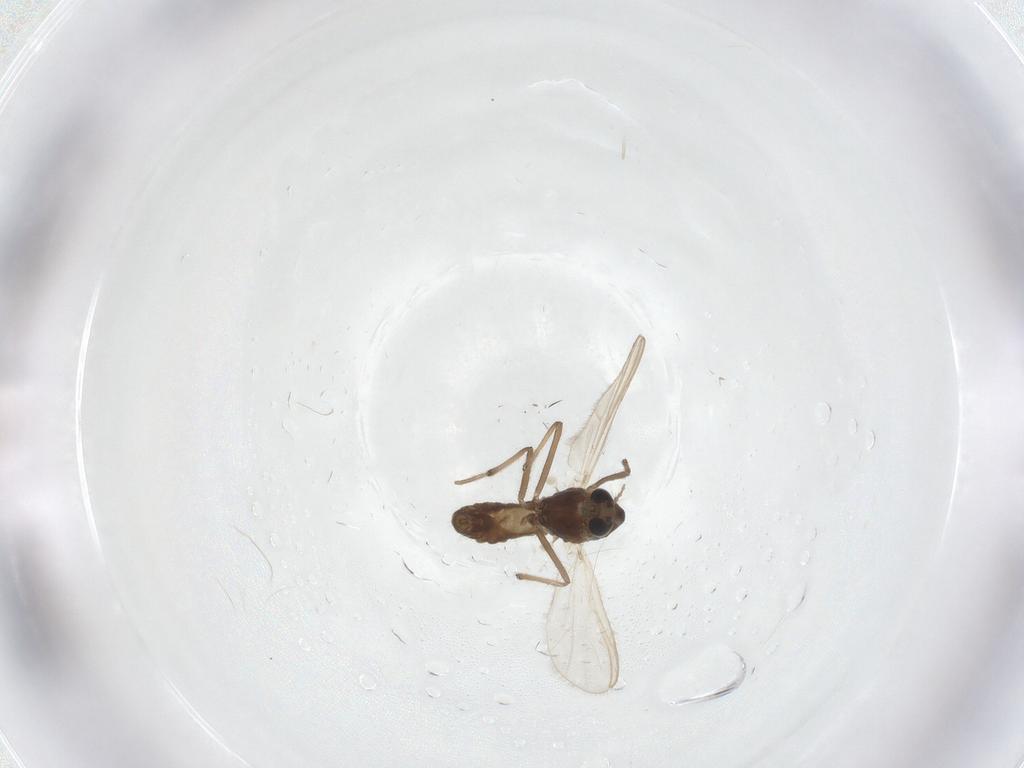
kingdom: Animalia
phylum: Arthropoda
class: Insecta
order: Diptera
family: Chironomidae
